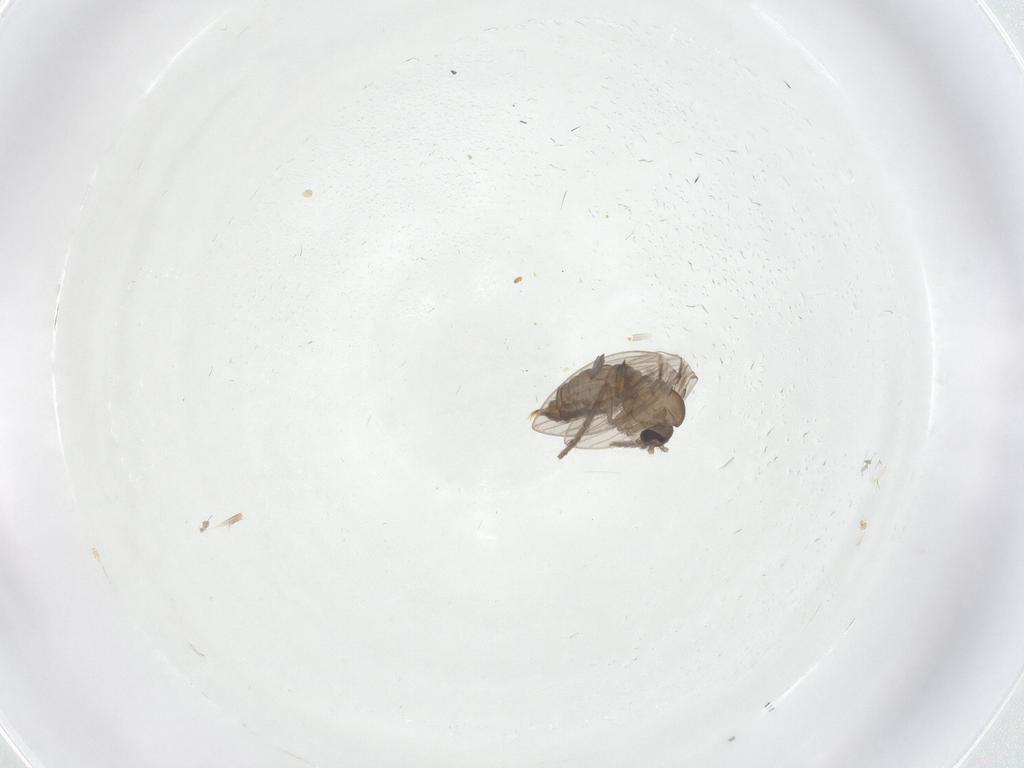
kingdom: Animalia
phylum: Arthropoda
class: Insecta
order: Diptera
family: Psychodidae
